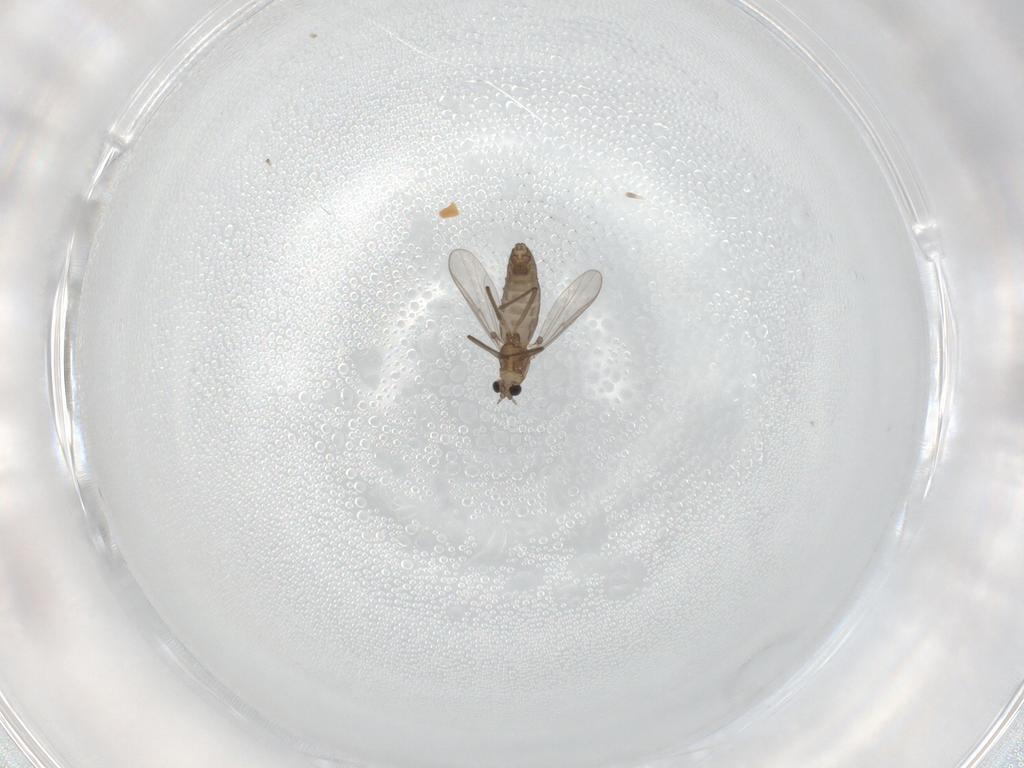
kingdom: Animalia
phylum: Arthropoda
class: Insecta
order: Diptera
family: Chironomidae
